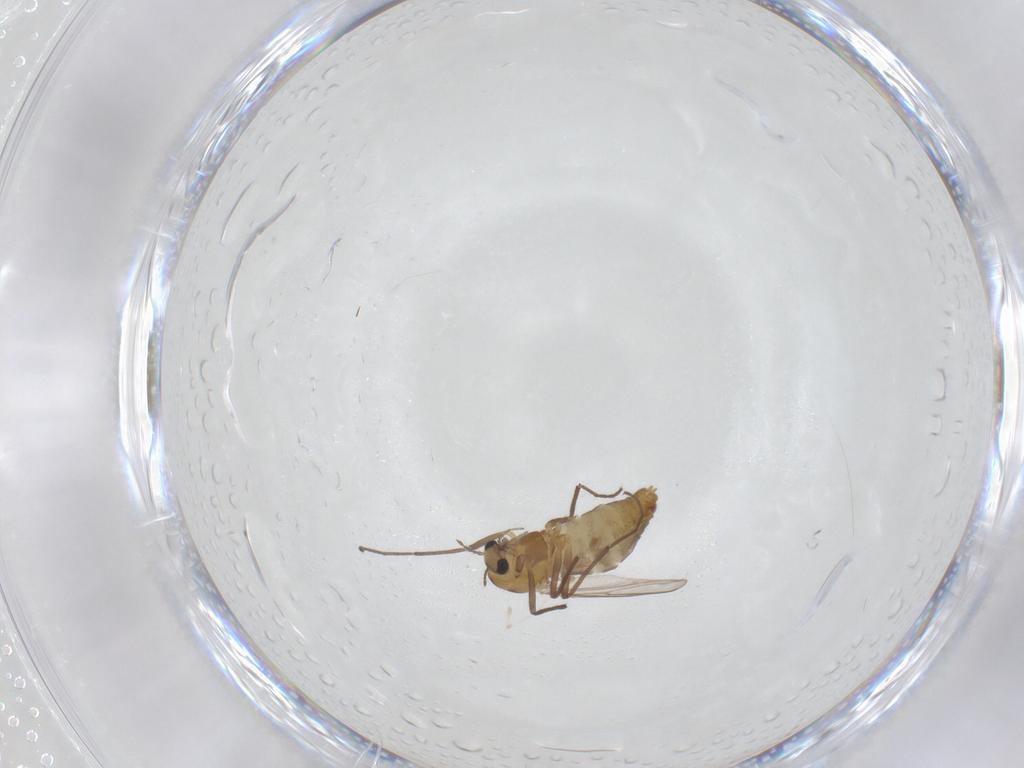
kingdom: Animalia
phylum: Arthropoda
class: Insecta
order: Diptera
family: Chironomidae
